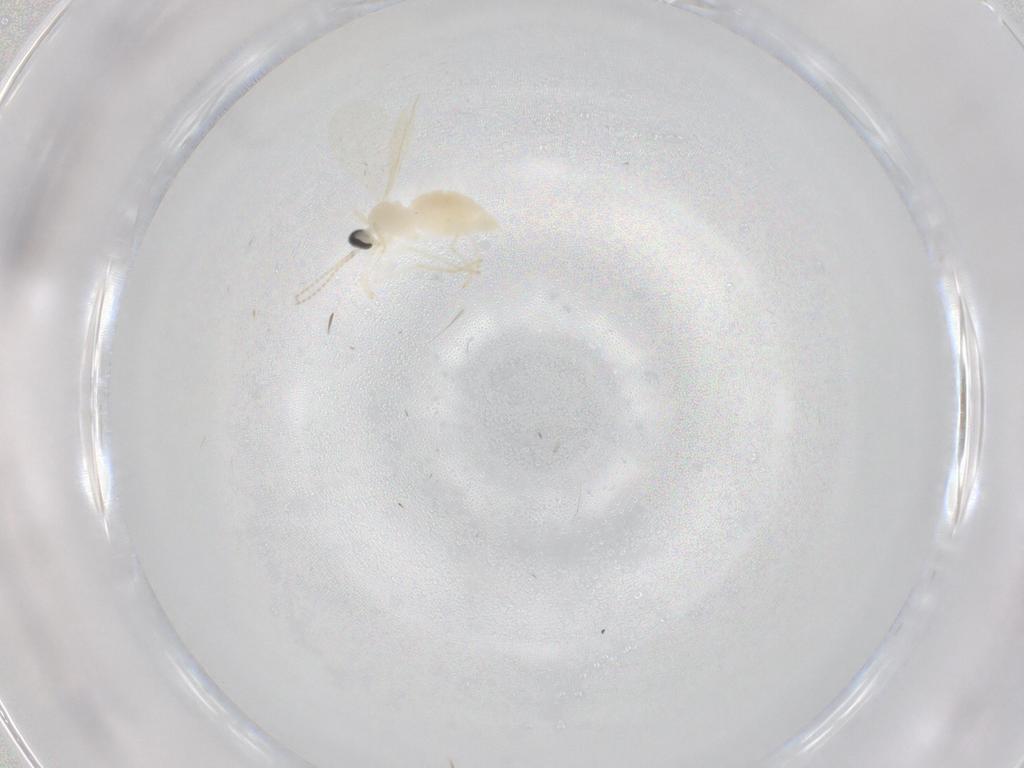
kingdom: Animalia
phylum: Arthropoda
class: Insecta
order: Diptera
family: Cecidomyiidae
